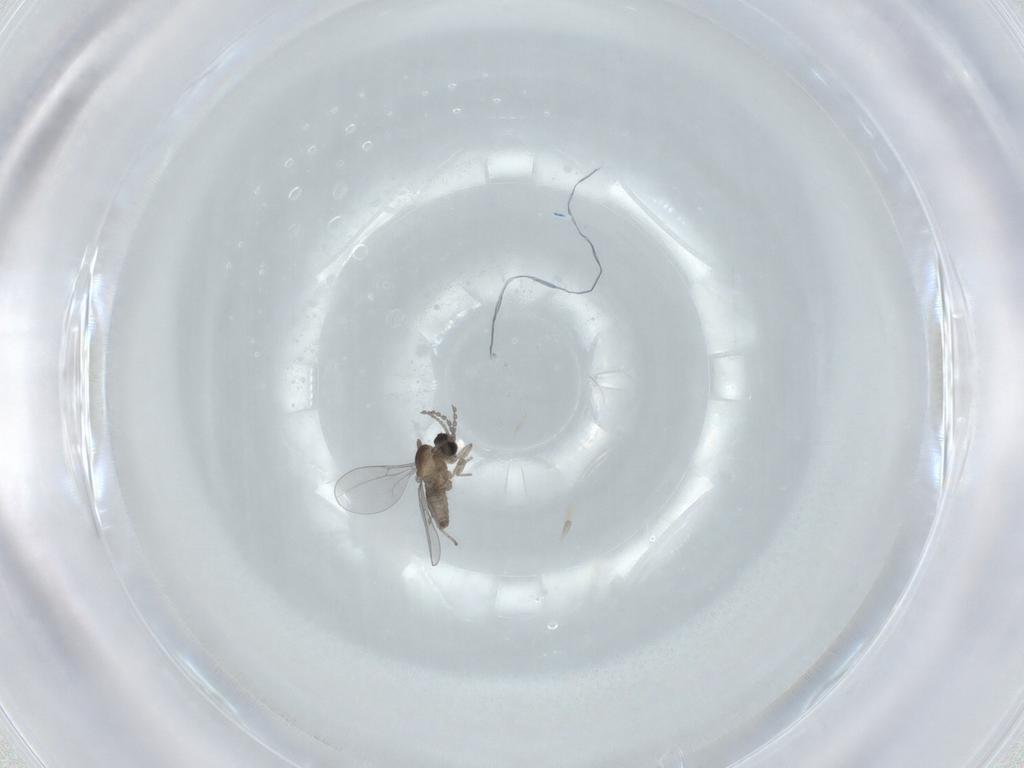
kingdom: Animalia
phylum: Arthropoda
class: Insecta
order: Diptera
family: Cecidomyiidae
